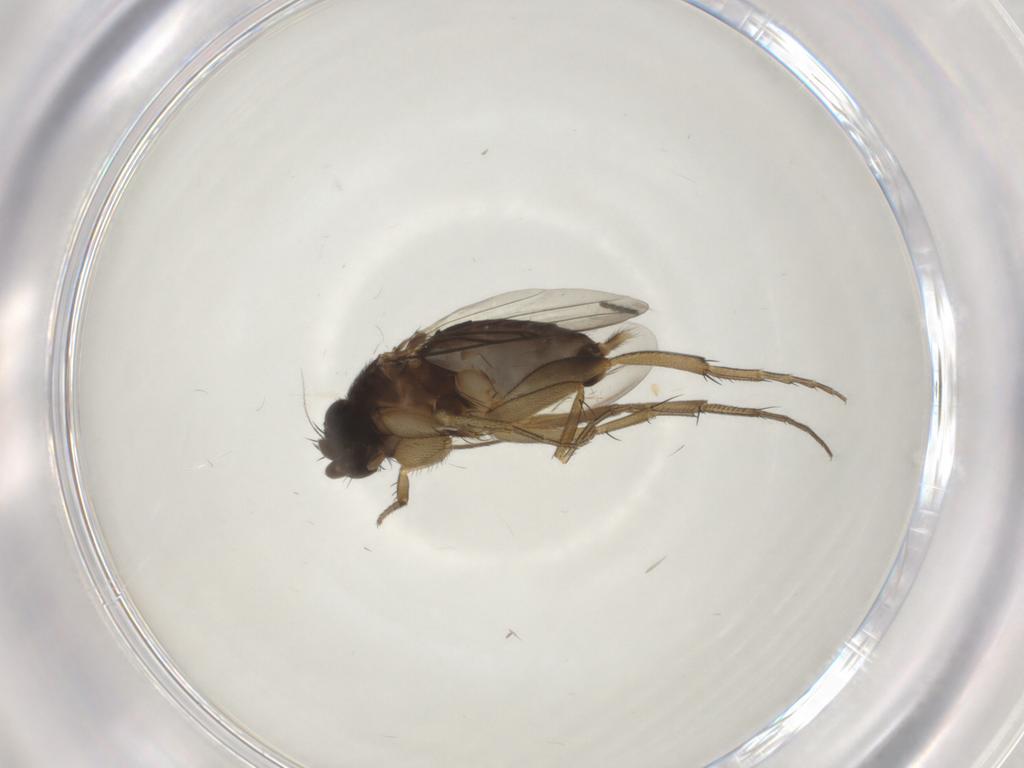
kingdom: Animalia
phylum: Arthropoda
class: Insecta
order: Diptera
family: Phoridae
